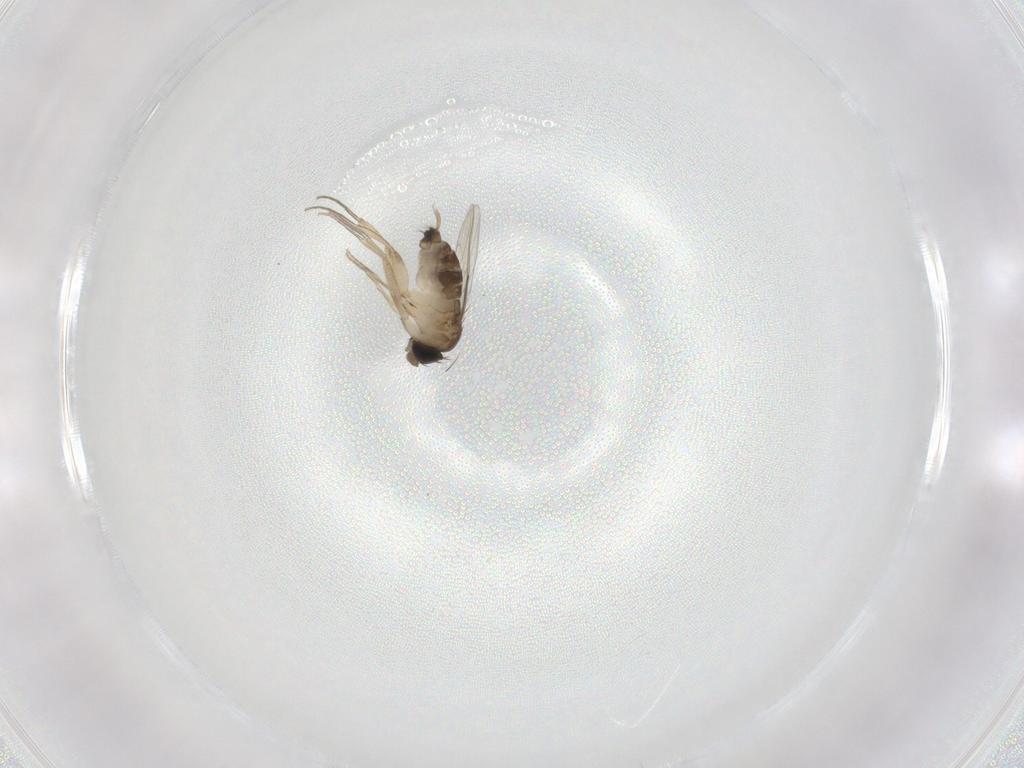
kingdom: Animalia
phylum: Arthropoda
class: Insecta
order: Diptera
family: Phoridae
